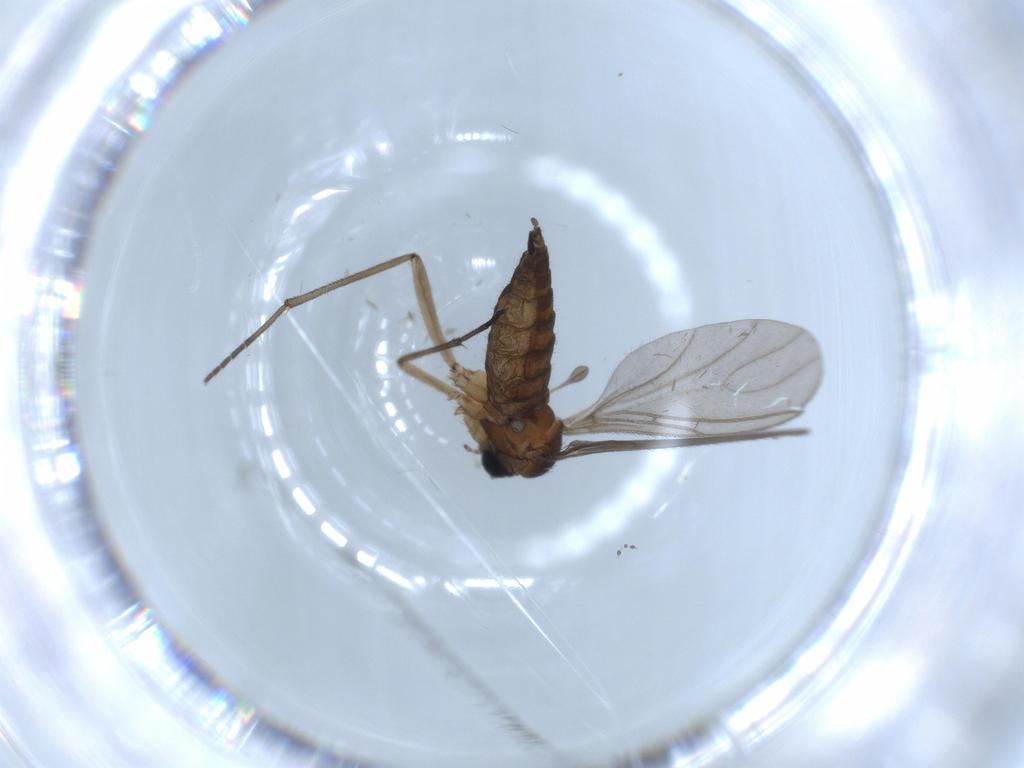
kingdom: Animalia
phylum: Arthropoda
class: Insecta
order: Diptera
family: Sciaridae
